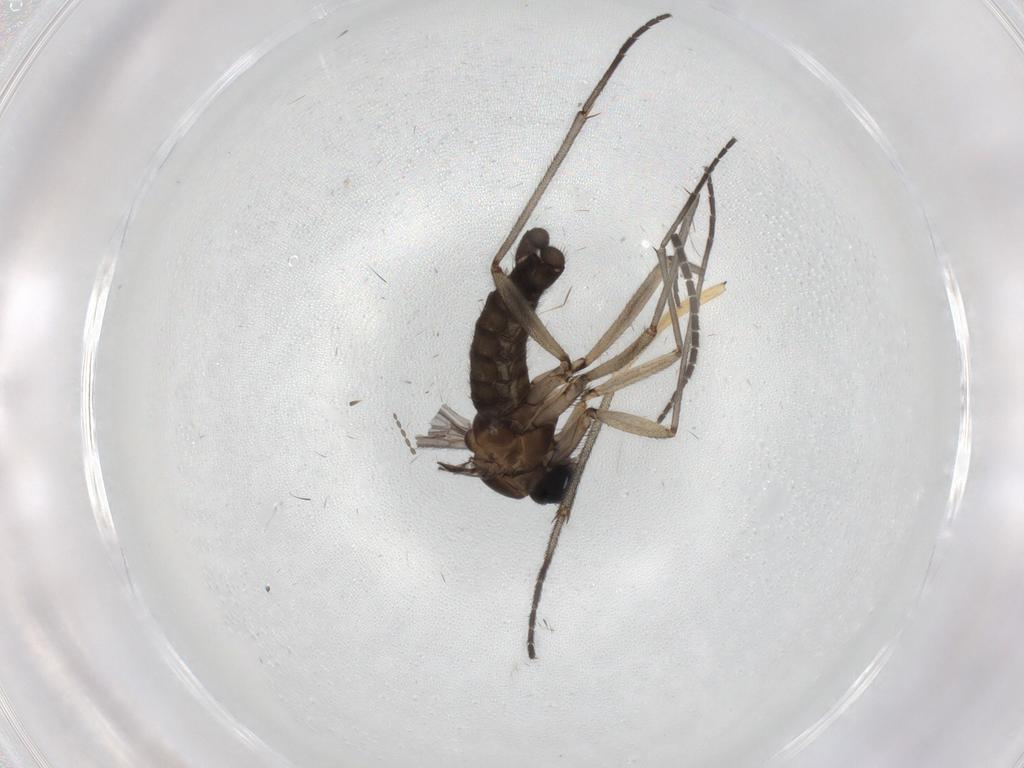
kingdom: Animalia
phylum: Arthropoda
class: Insecta
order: Diptera
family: Sciaridae
